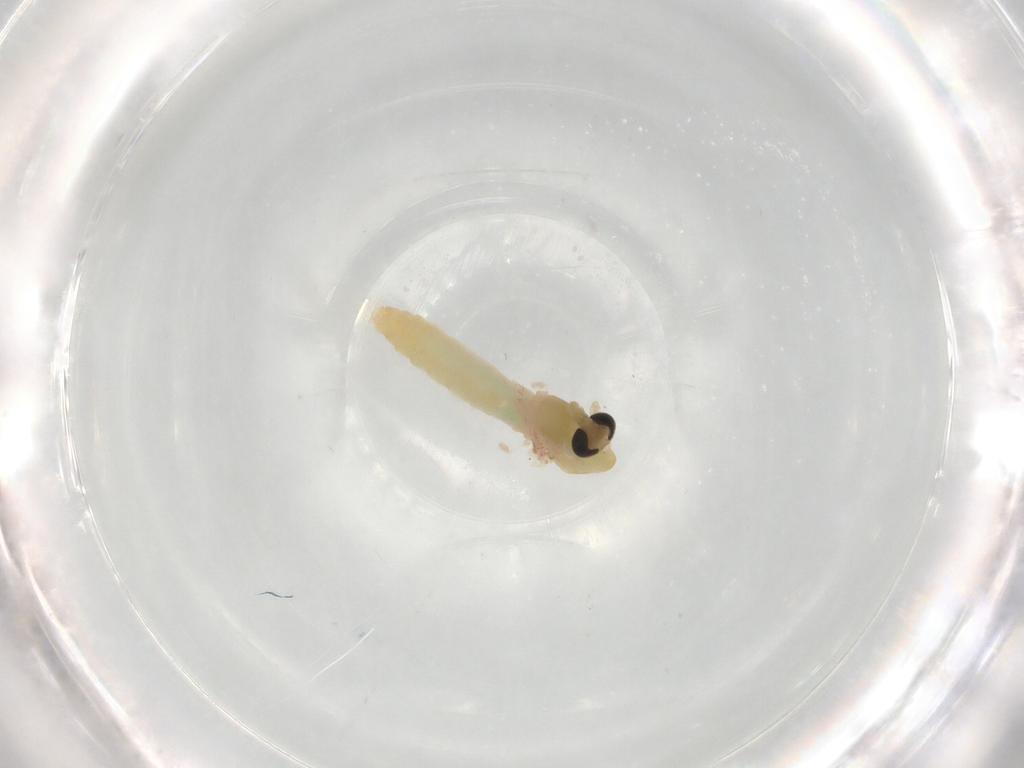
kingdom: Animalia
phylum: Arthropoda
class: Insecta
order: Diptera
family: Chironomidae
